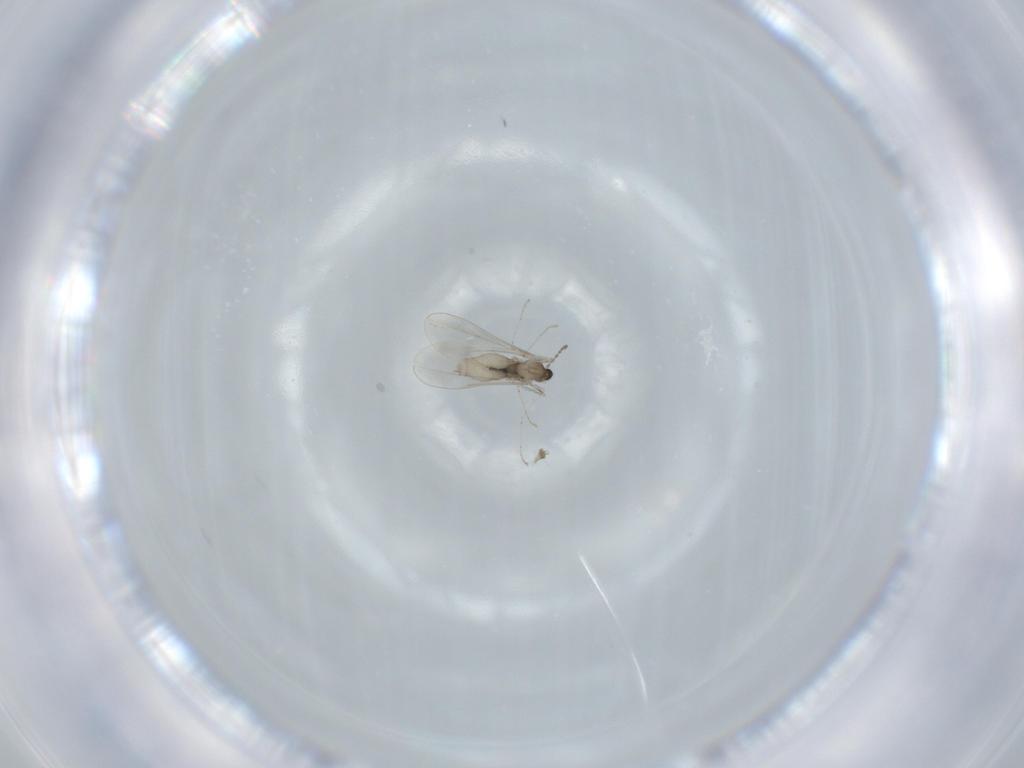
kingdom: Animalia
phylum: Arthropoda
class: Insecta
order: Diptera
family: Cecidomyiidae
